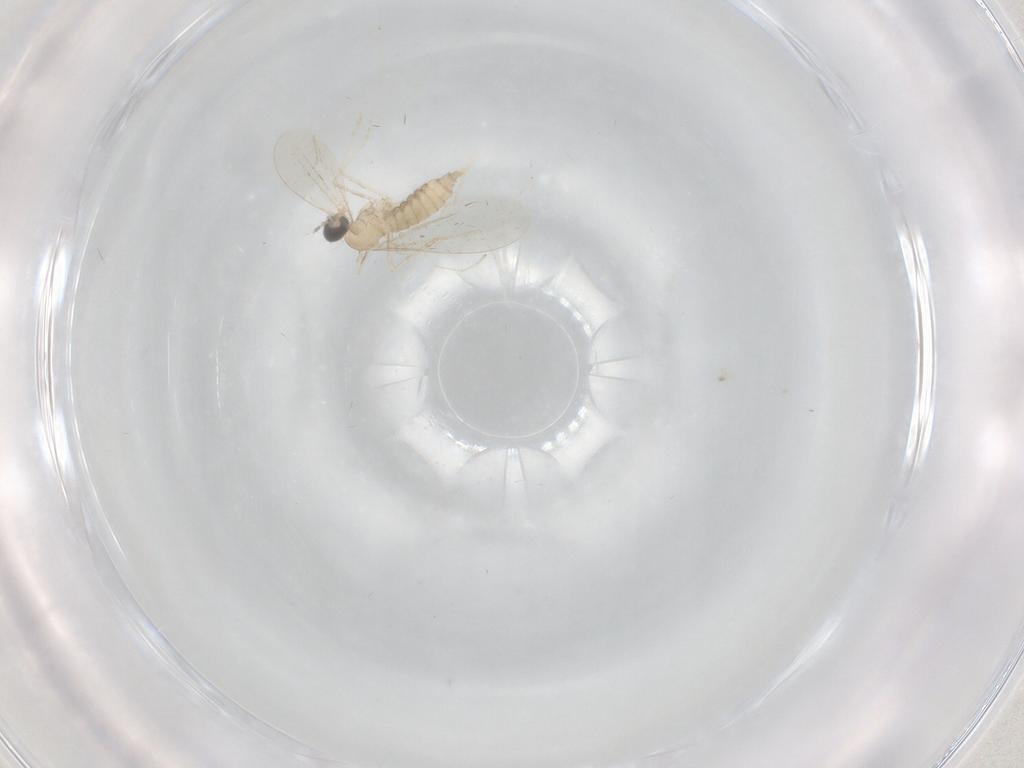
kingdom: Animalia
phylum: Arthropoda
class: Insecta
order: Diptera
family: Cecidomyiidae
